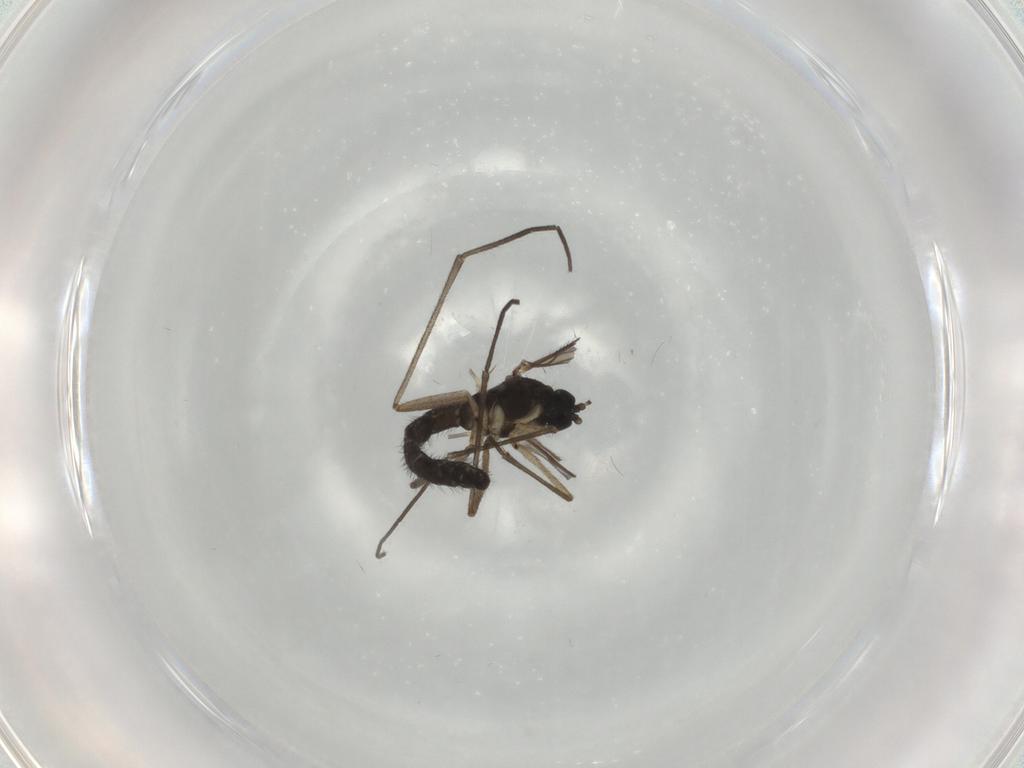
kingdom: Animalia
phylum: Arthropoda
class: Insecta
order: Diptera
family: Sciaridae
